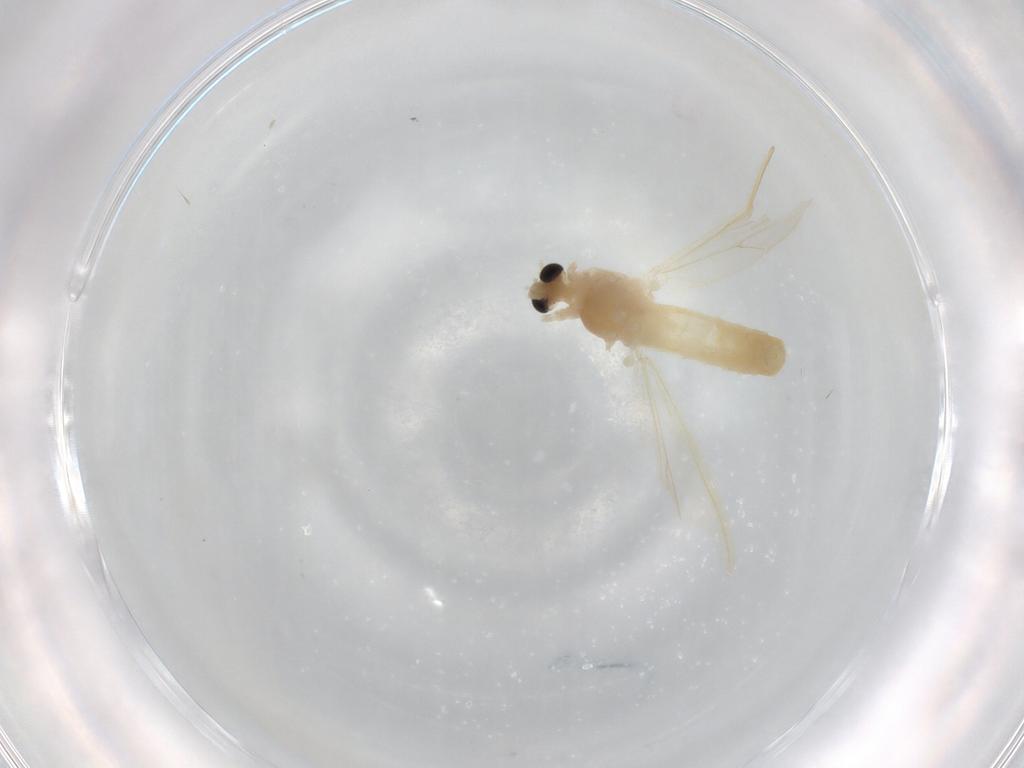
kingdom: Animalia
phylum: Arthropoda
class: Insecta
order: Diptera
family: Chironomidae
